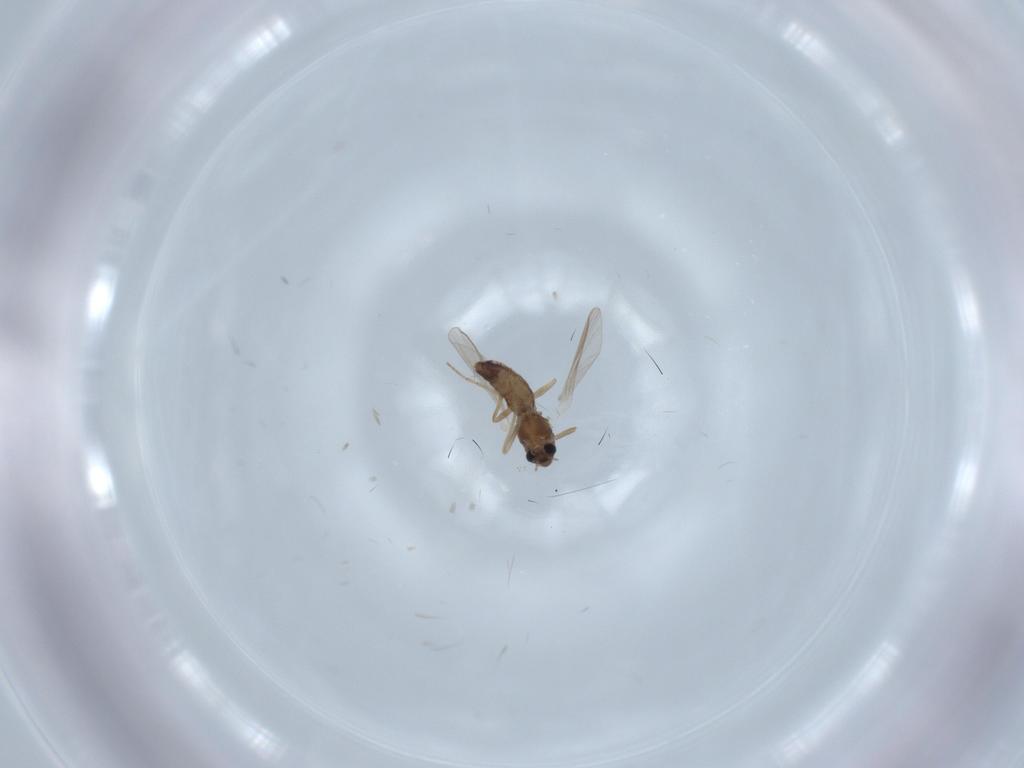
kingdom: Animalia
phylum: Arthropoda
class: Insecta
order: Diptera
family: Chironomidae
